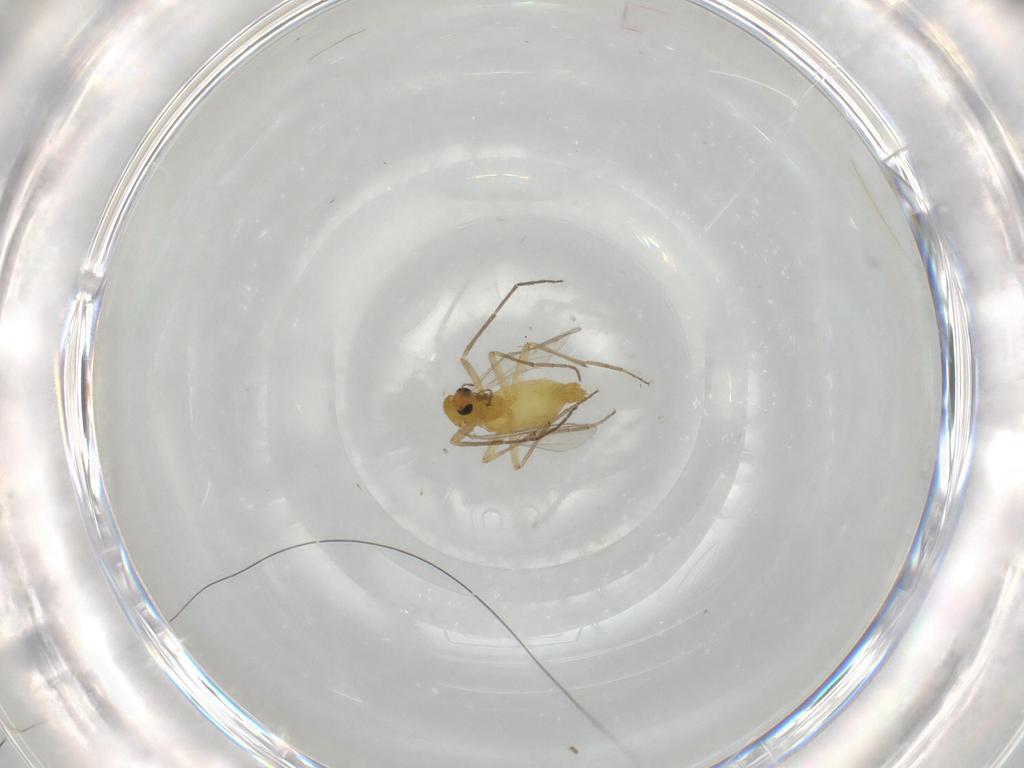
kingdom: Animalia
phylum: Arthropoda
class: Insecta
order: Diptera
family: Chironomidae
